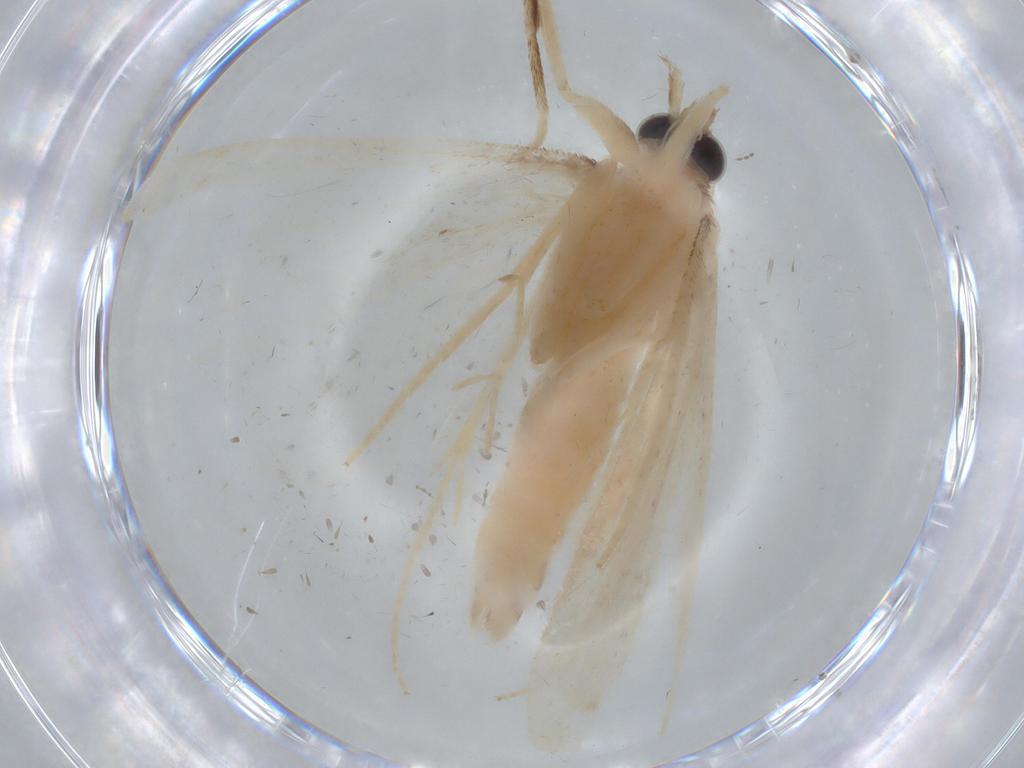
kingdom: Animalia
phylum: Arthropoda
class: Insecta
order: Lepidoptera
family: Crambidae
